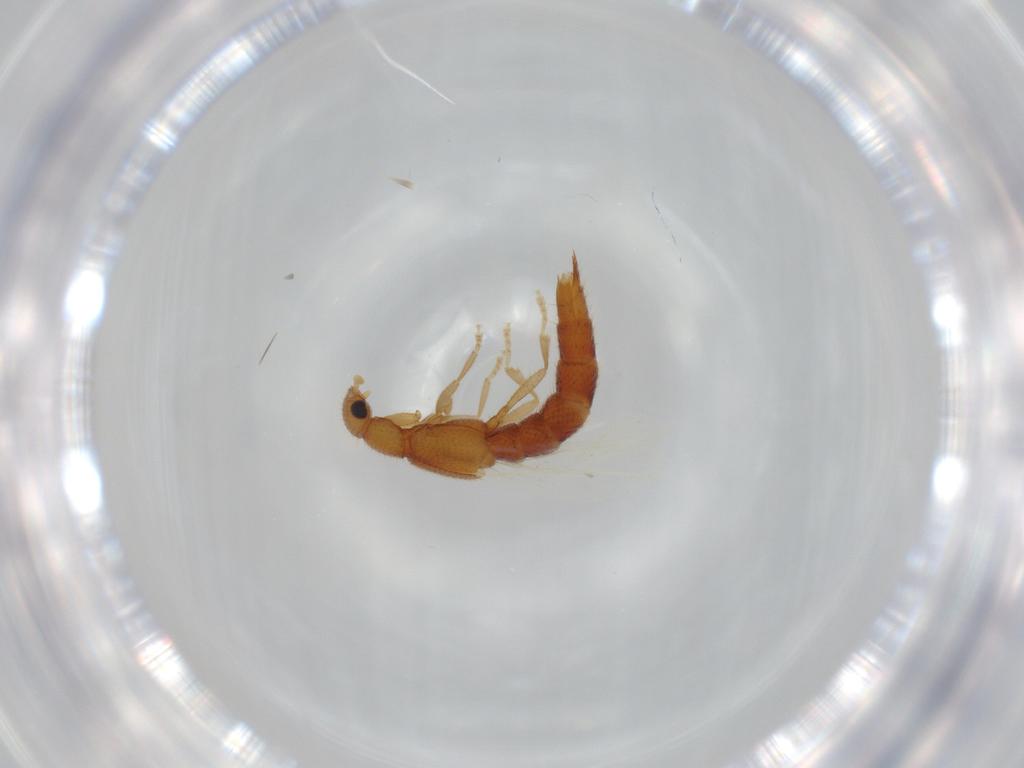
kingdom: Animalia
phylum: Arthropoda
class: Insecta
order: Coleoptera
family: Staphylinidae
